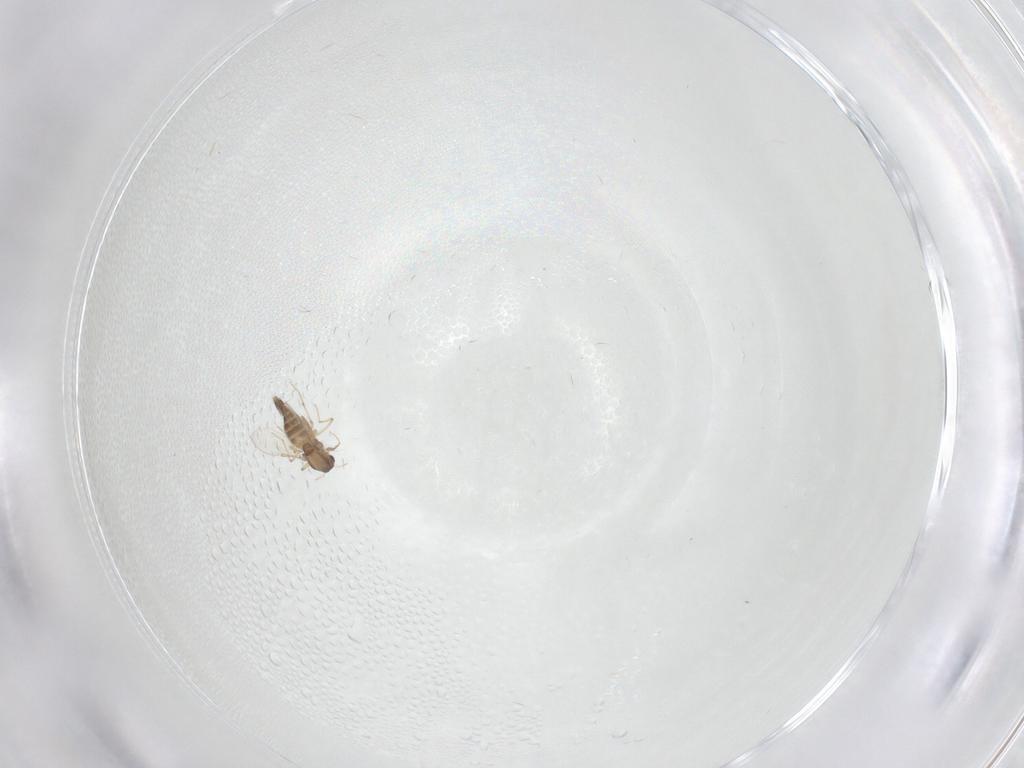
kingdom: Animalia
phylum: Arthropoda
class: Insecta
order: Diptera
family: Chironomidae
